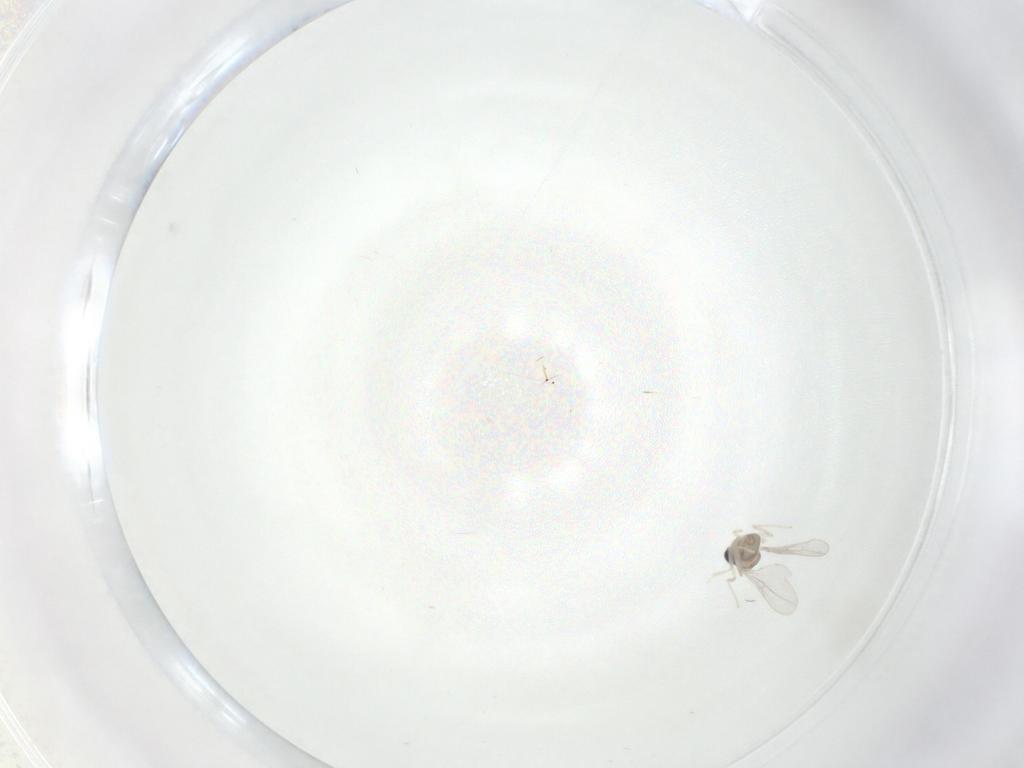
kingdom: Animalia
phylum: Arthropoda
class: Insecta
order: Diptera
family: Cecidomyiidae
